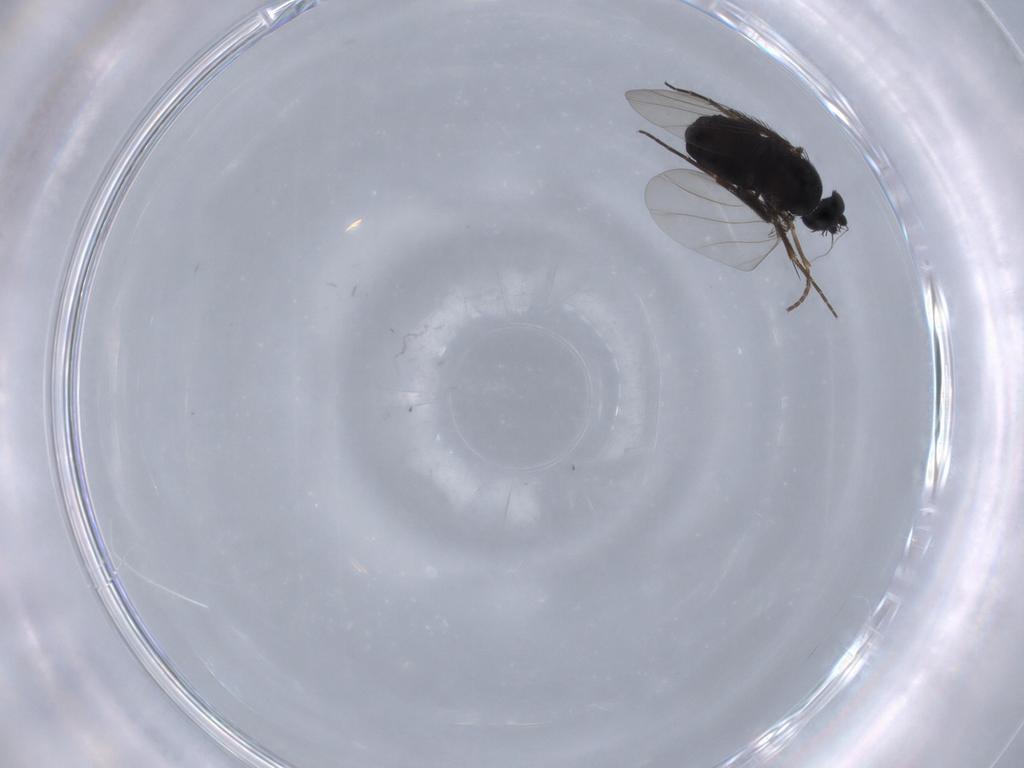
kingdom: Animalia
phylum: Arthropoda
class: Insecta
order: Diptera
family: Phoridae
